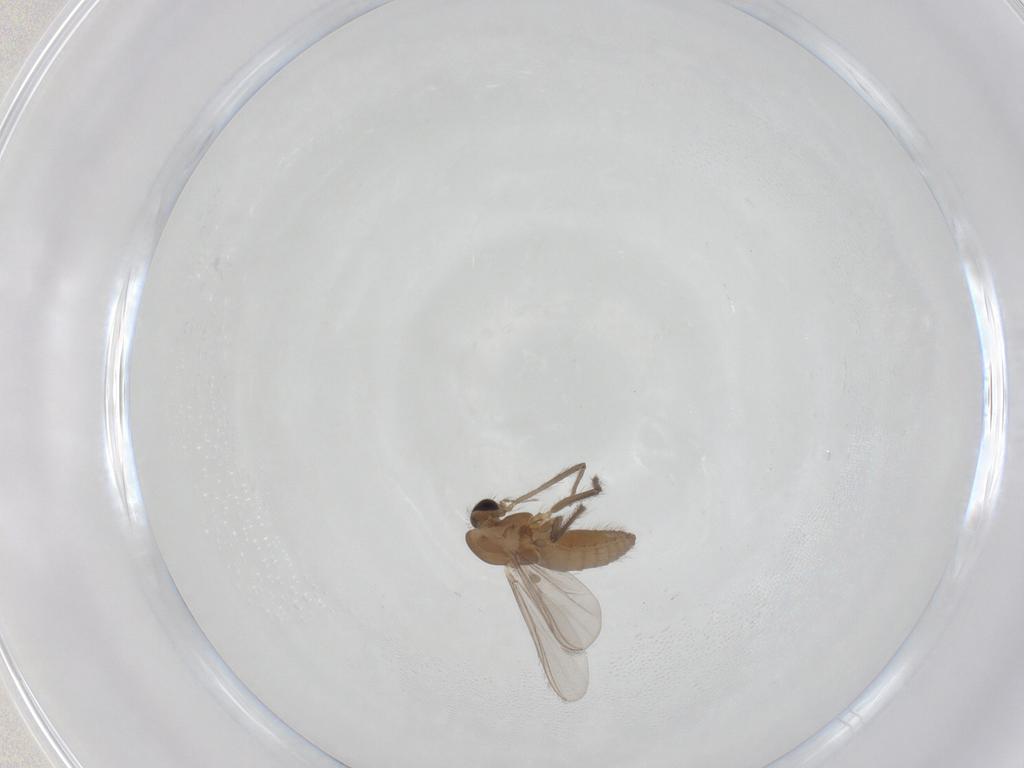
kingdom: Animalia
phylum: Arthropoda
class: Insecta
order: Diptera
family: Chironomidae
